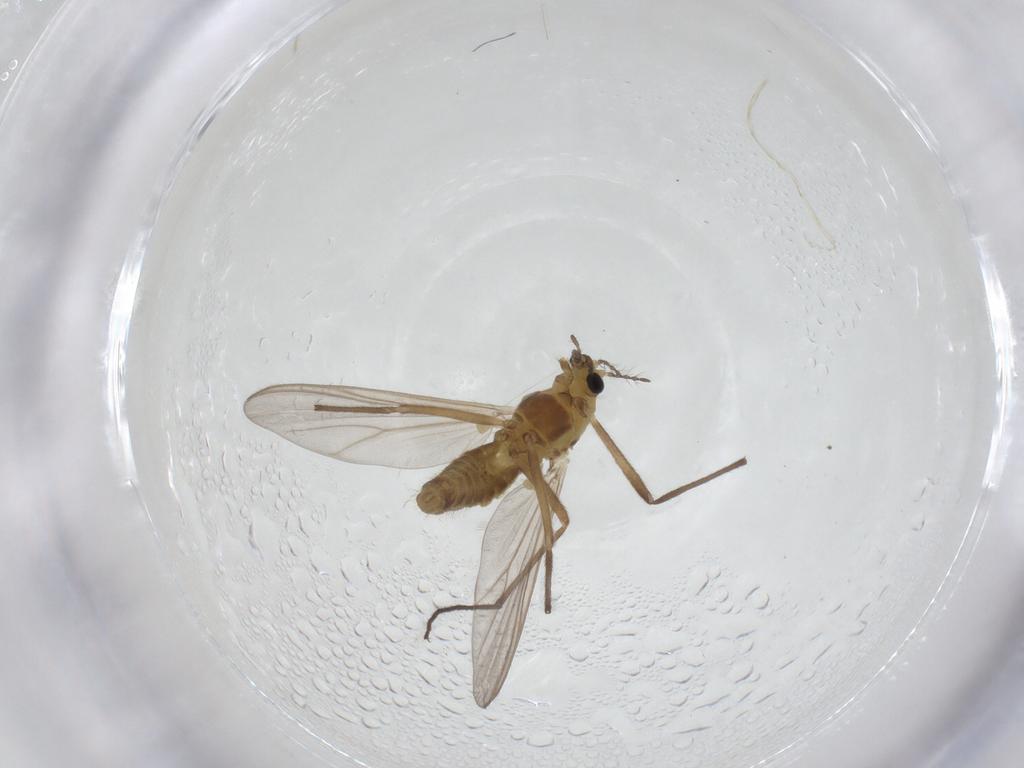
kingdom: Animalia
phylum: Arthropoda
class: Insecta
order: Diptera
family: Chironomidae
